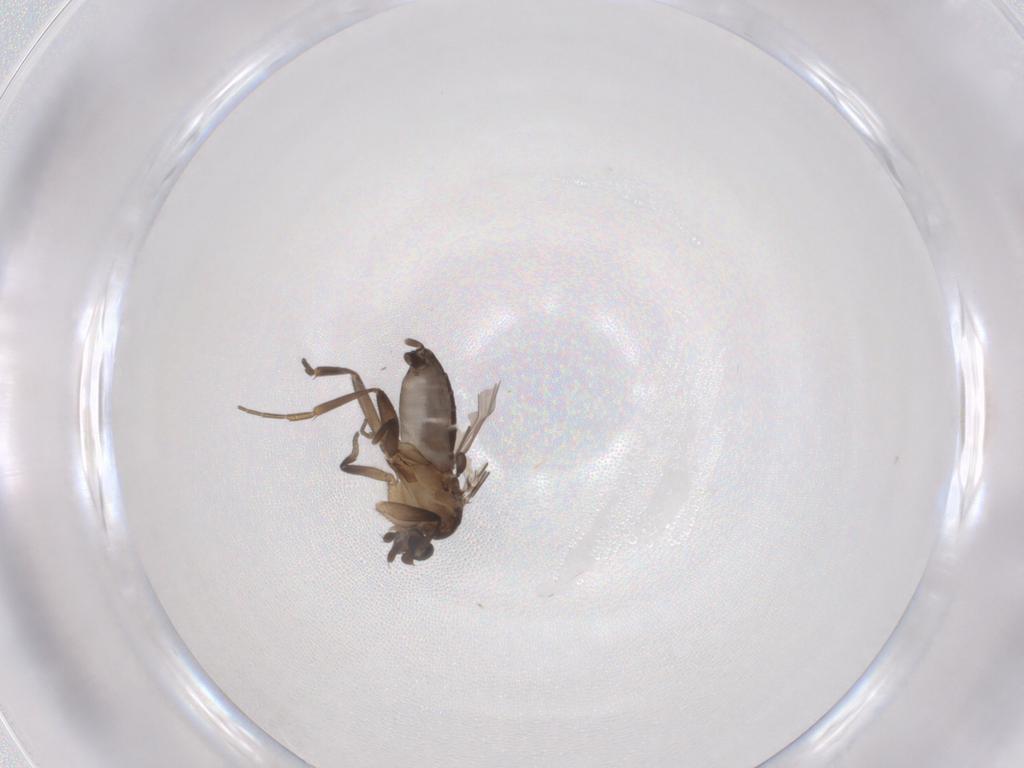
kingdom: Animalia
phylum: Arthropoda
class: Insecta
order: Diptera
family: Phoridae
